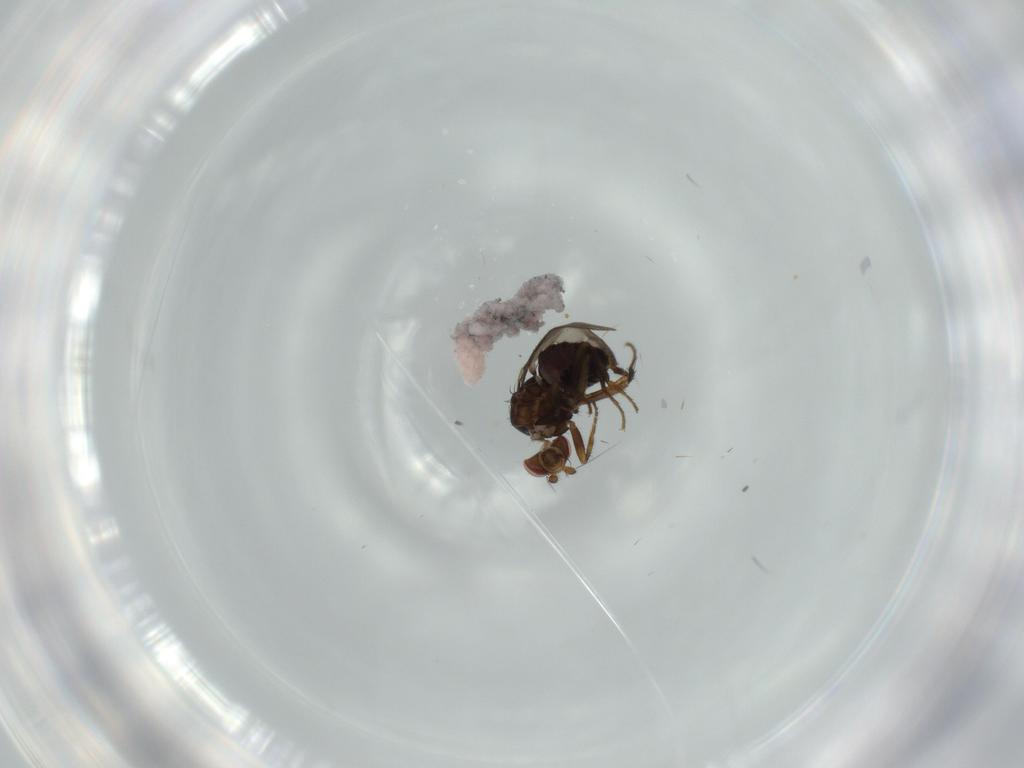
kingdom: Animalia
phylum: Arthropoda
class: Insecta
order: Diptera
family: Sphaeroceridae
